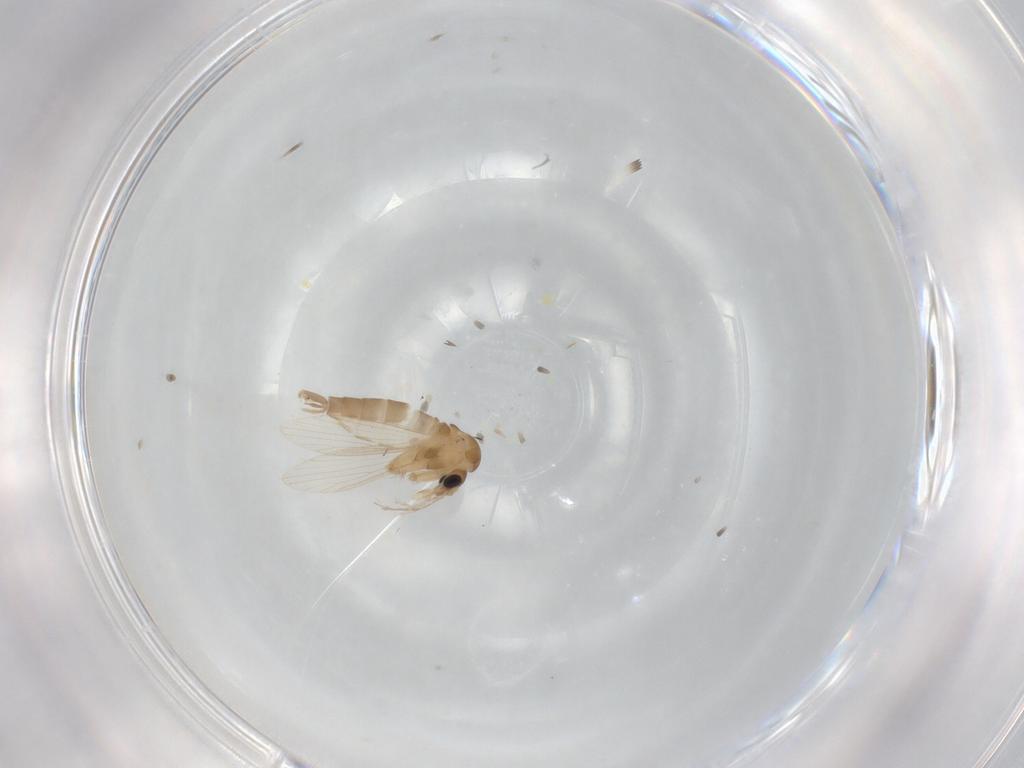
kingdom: Animalia
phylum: Arthropoda
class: Insecta
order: Diptera
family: Psychodidae
